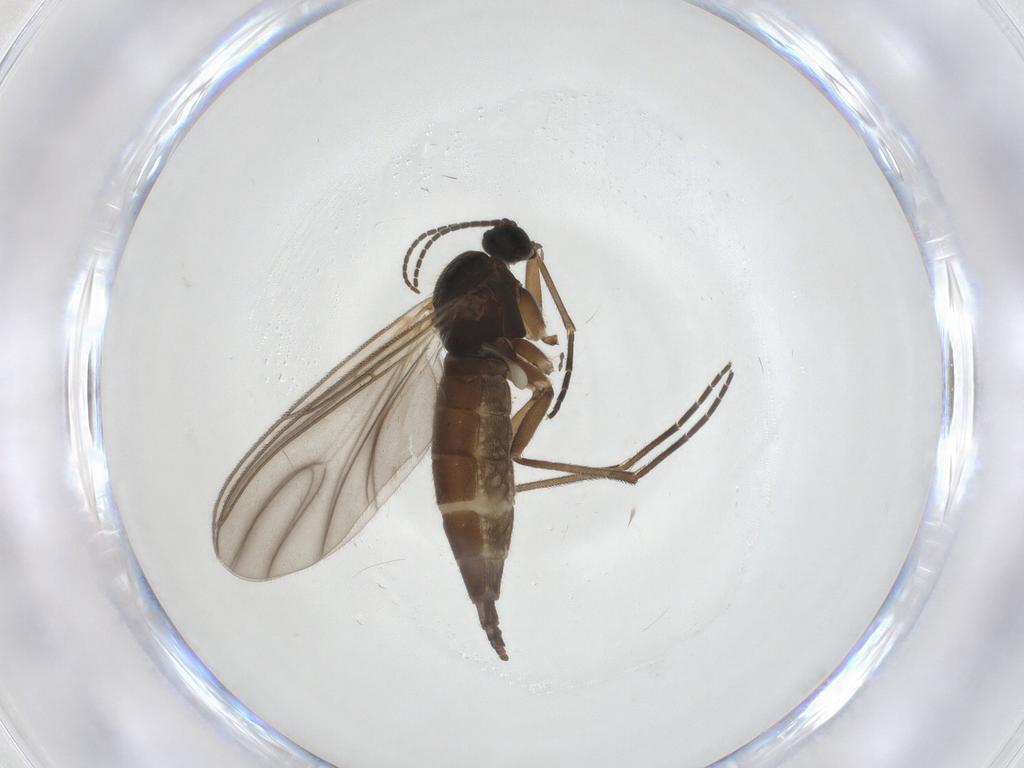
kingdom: Animalia
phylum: Arthropoda
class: Insecta
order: Diptera
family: Sciaridae
